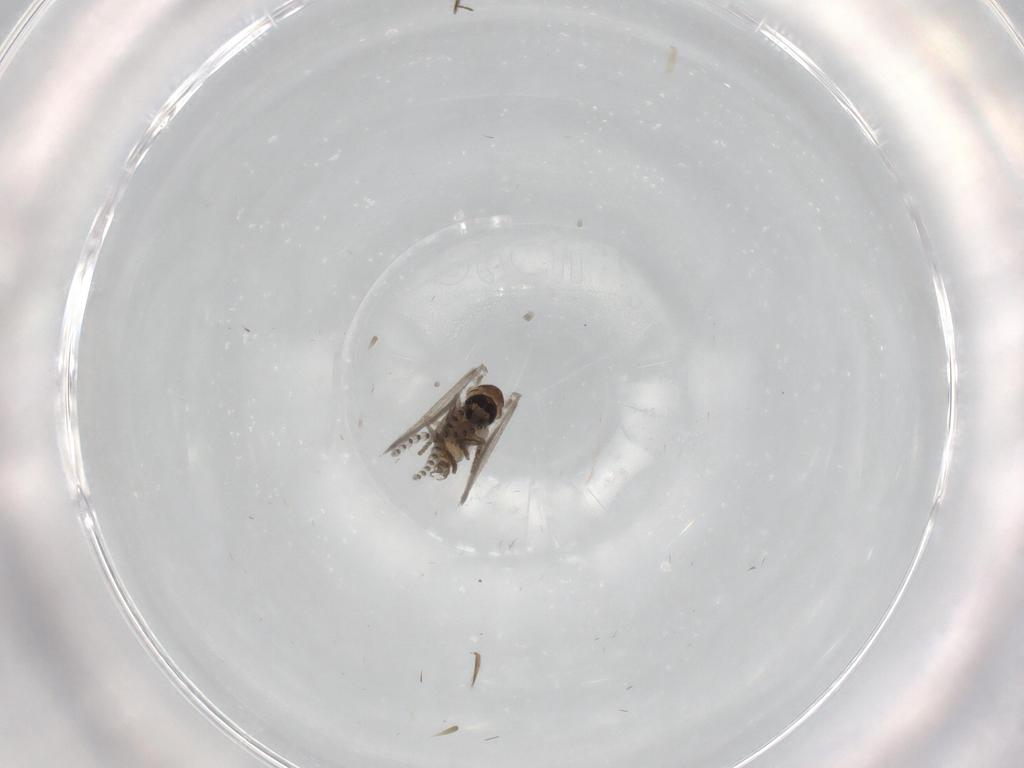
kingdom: Animalia
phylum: Arthropoda
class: Insecta
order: Diptera
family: Psychodidae
